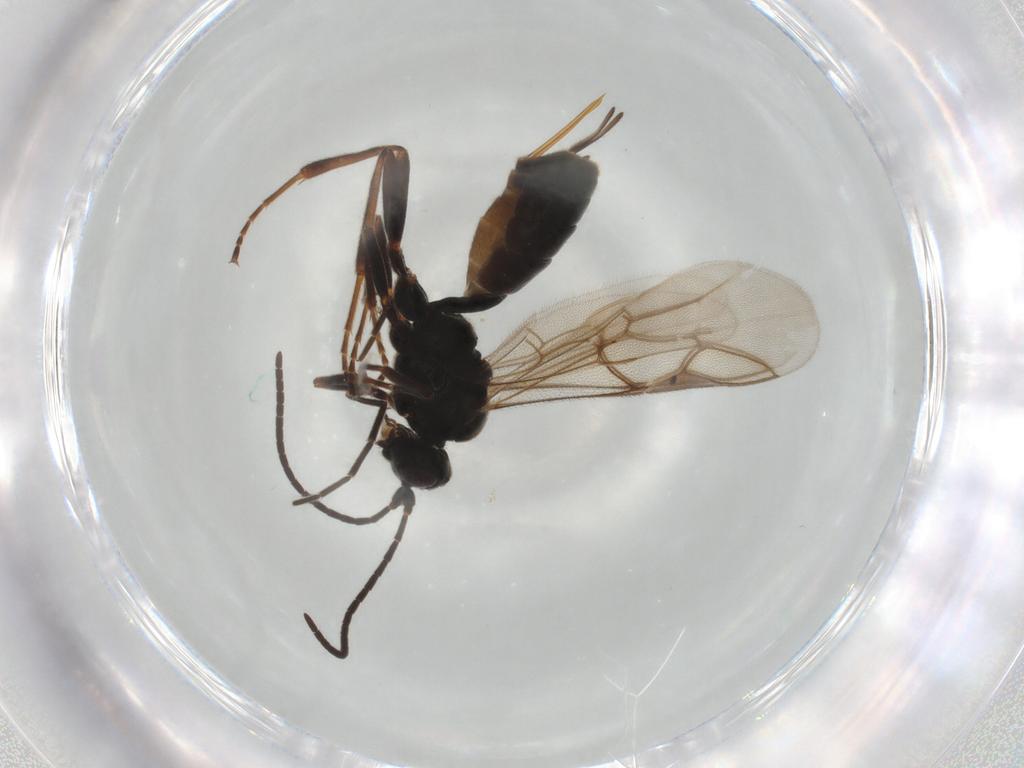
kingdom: Animalia
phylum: Arthropoda
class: Insecta
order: Hymenoptera
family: Ichneumonidae
